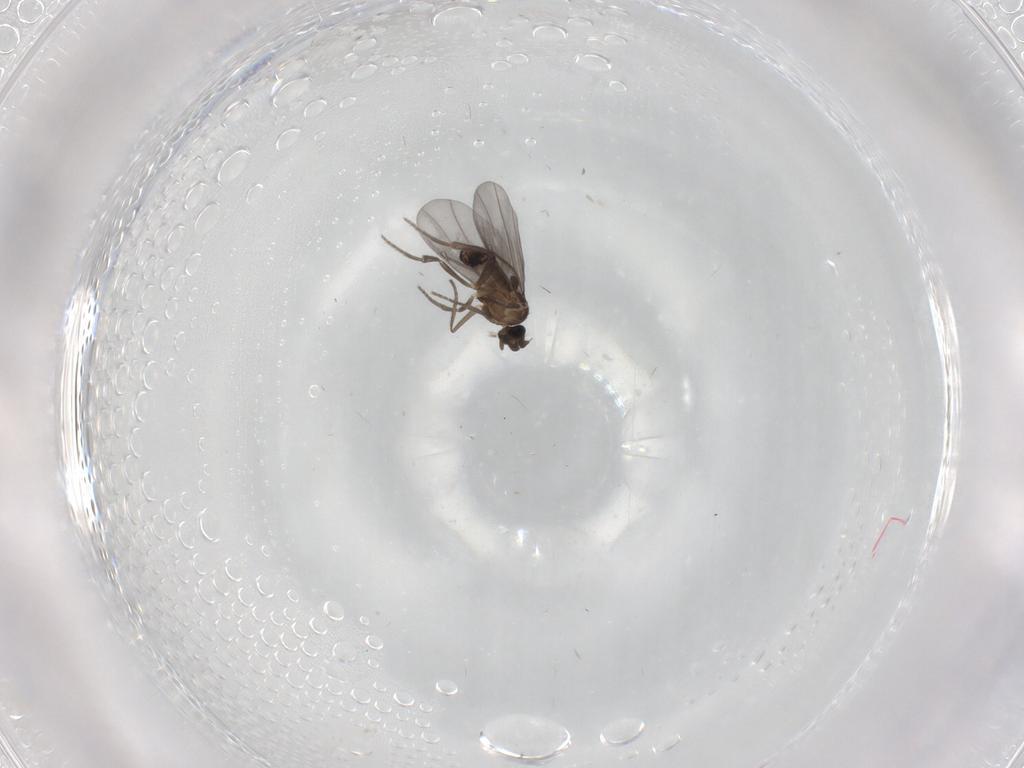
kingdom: Animalia
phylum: Arthropoda
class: Insecta
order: Diptera
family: Phoridae
